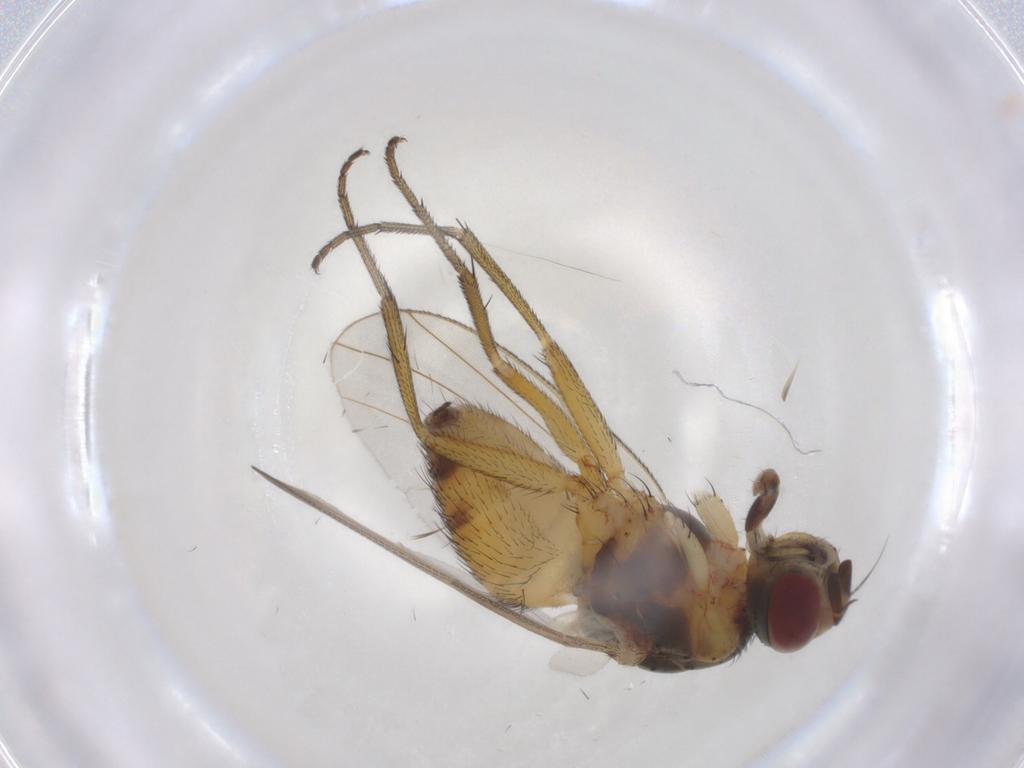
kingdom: Animalia
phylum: Arthropoda
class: Insecta
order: Diptera
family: Muscidae
